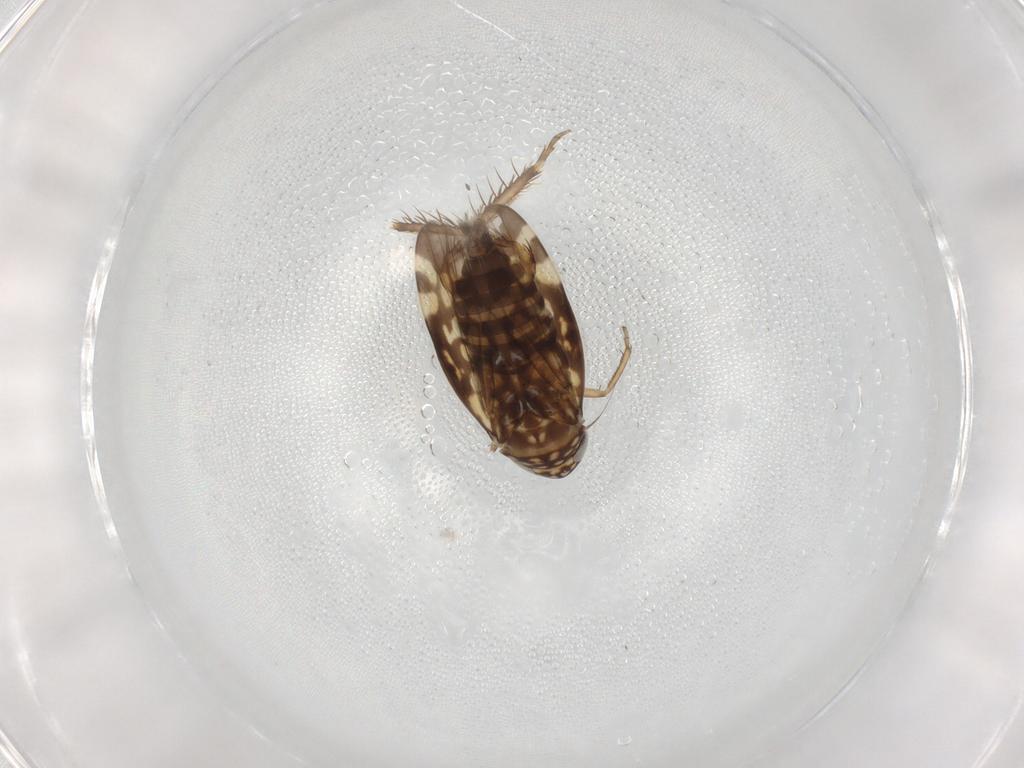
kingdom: Animalia
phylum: Arthropoda
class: Insecta
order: Hemiptera
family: Cicadellidae
